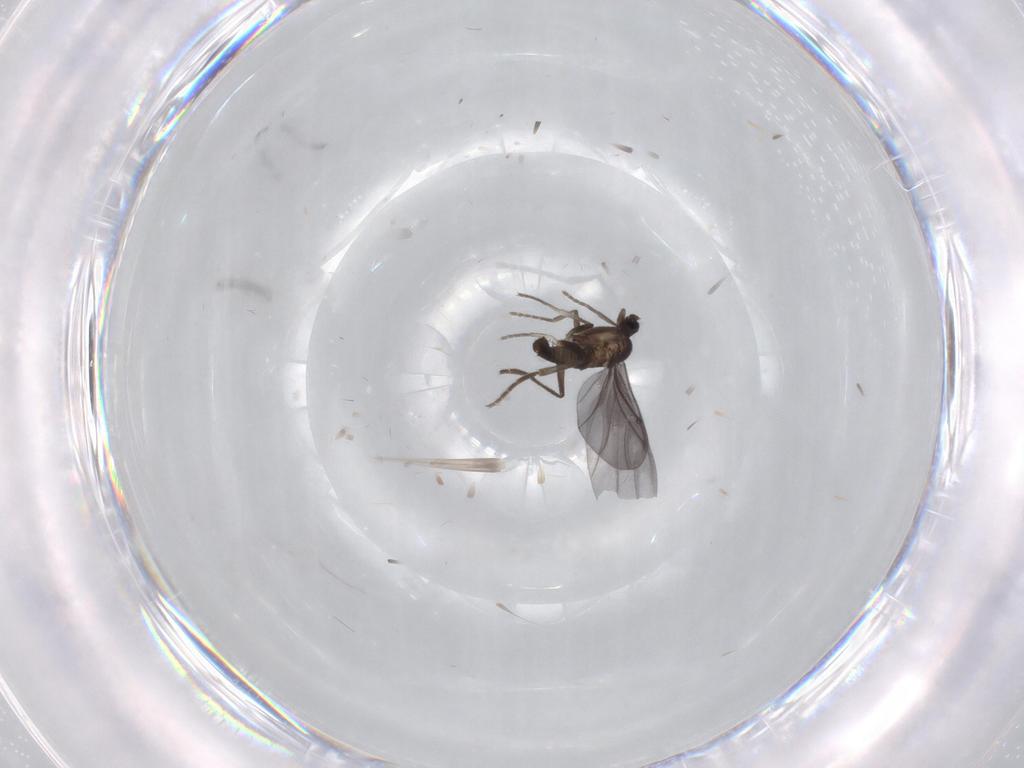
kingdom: Animalia
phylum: Arthropoda
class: Insecta
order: Diptera
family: Phoridae
